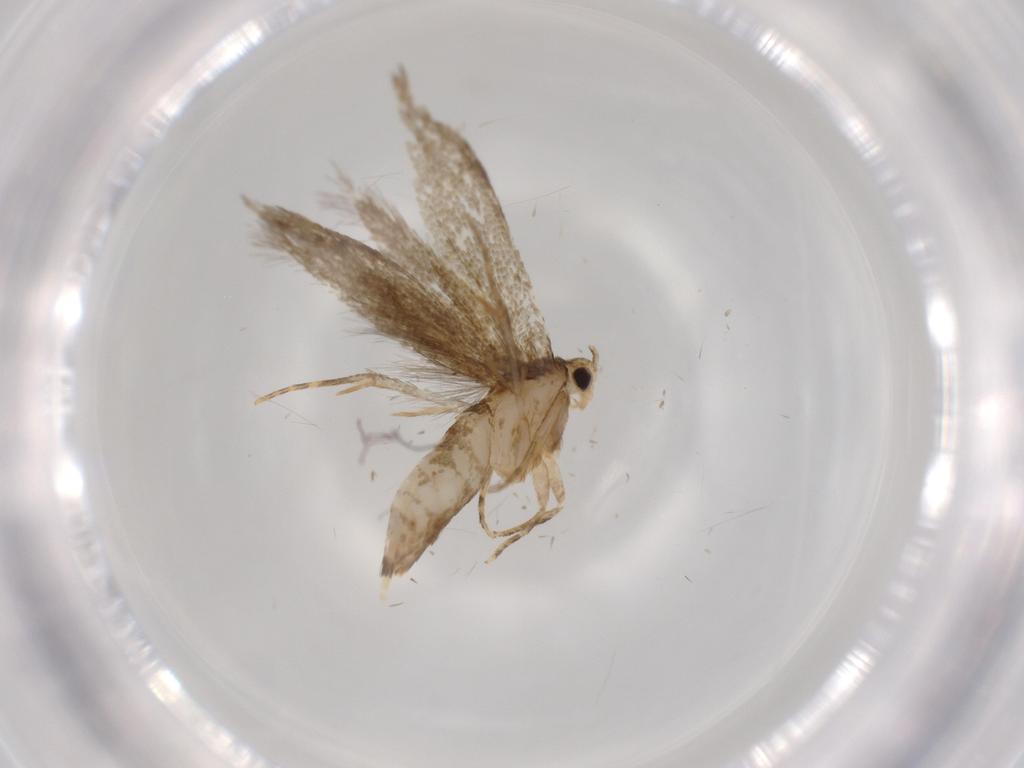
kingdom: Animalia
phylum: Arthropoda
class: Insecta
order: Lepidoptera
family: Tineidae
